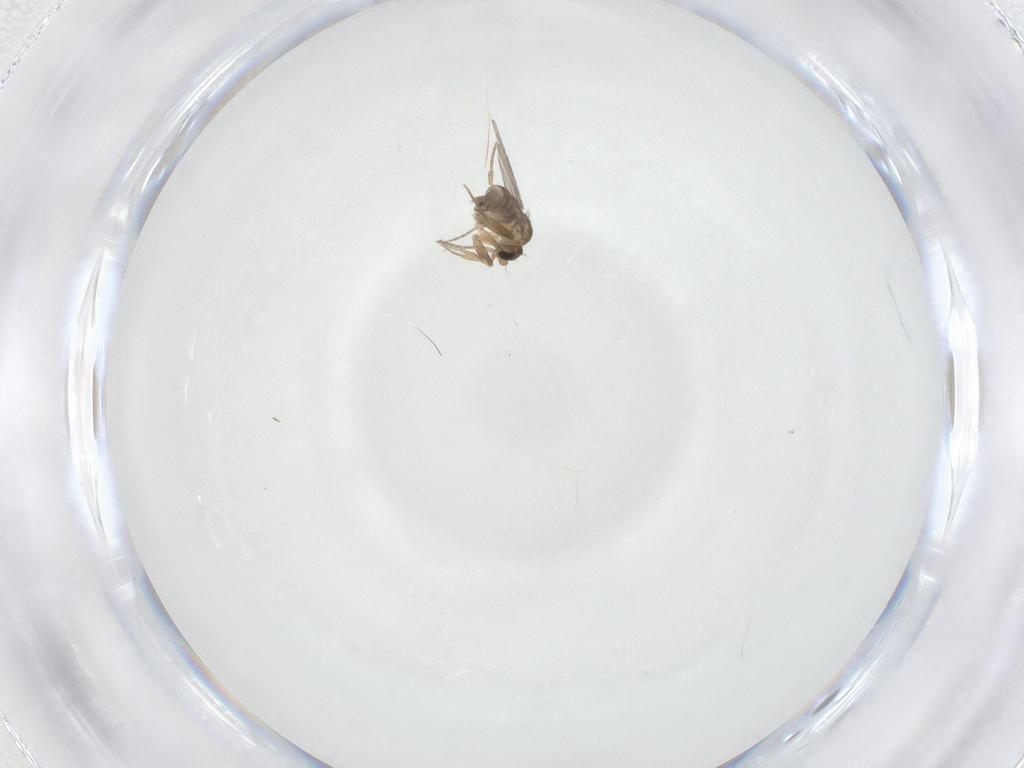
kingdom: Animalia
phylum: Arthropoda
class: Insecta
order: Diptera
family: Phoridae
